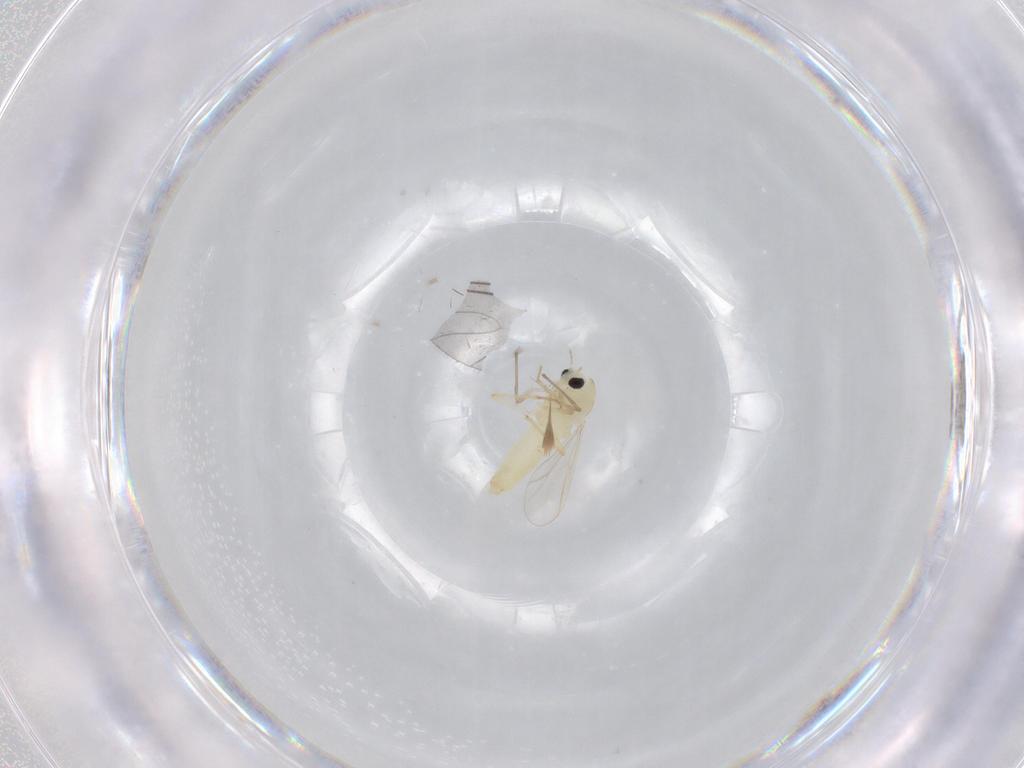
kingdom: Animalia
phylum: Arthropoda
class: Insecta
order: Diptera
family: Chironomidae
